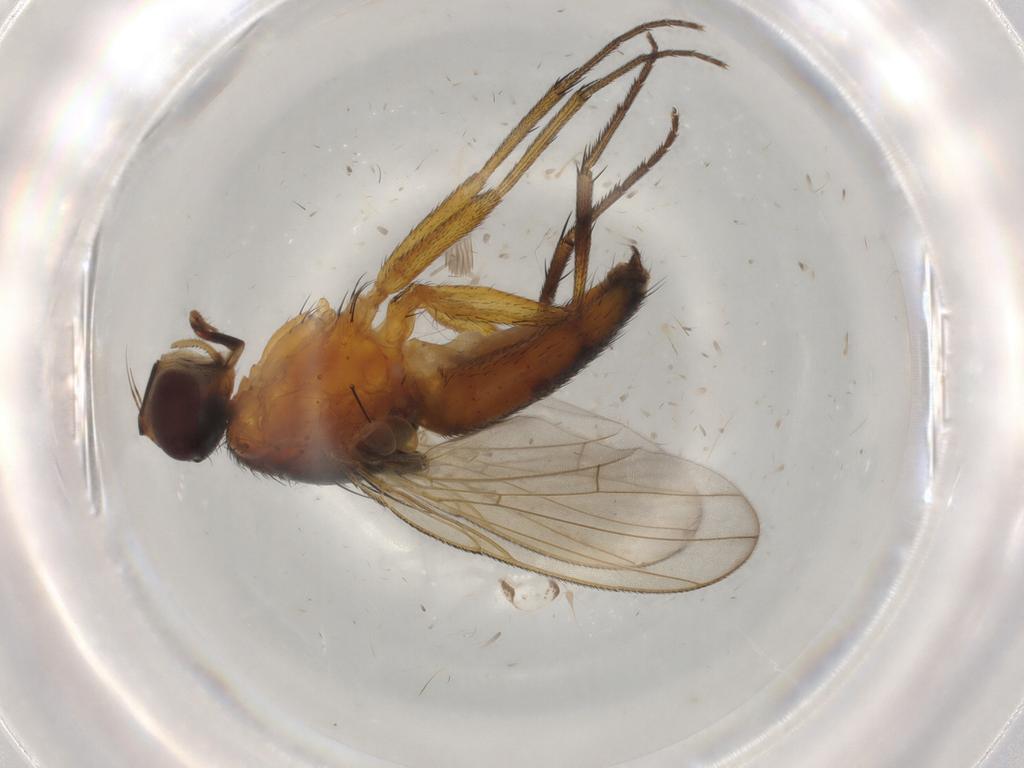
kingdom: Animalia
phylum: Arthropoda
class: Insecta
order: Diptera
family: Muscidae
